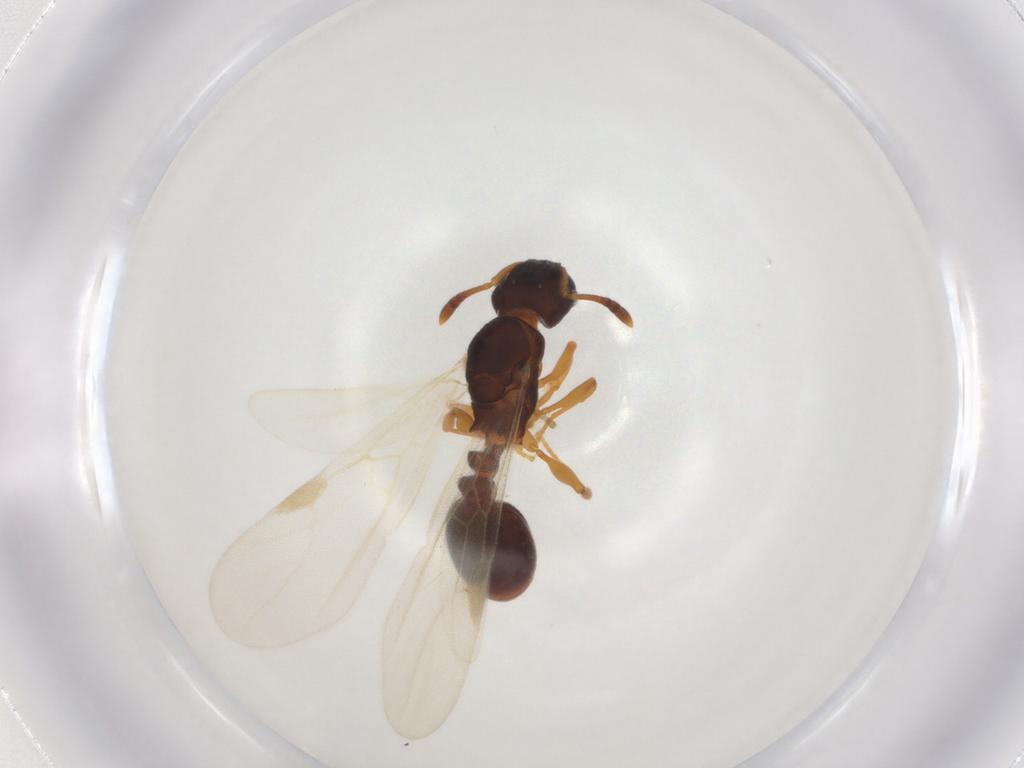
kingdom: Animalia
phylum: Arthropoda
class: Insecta
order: Hymenoptera
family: Formicidae
